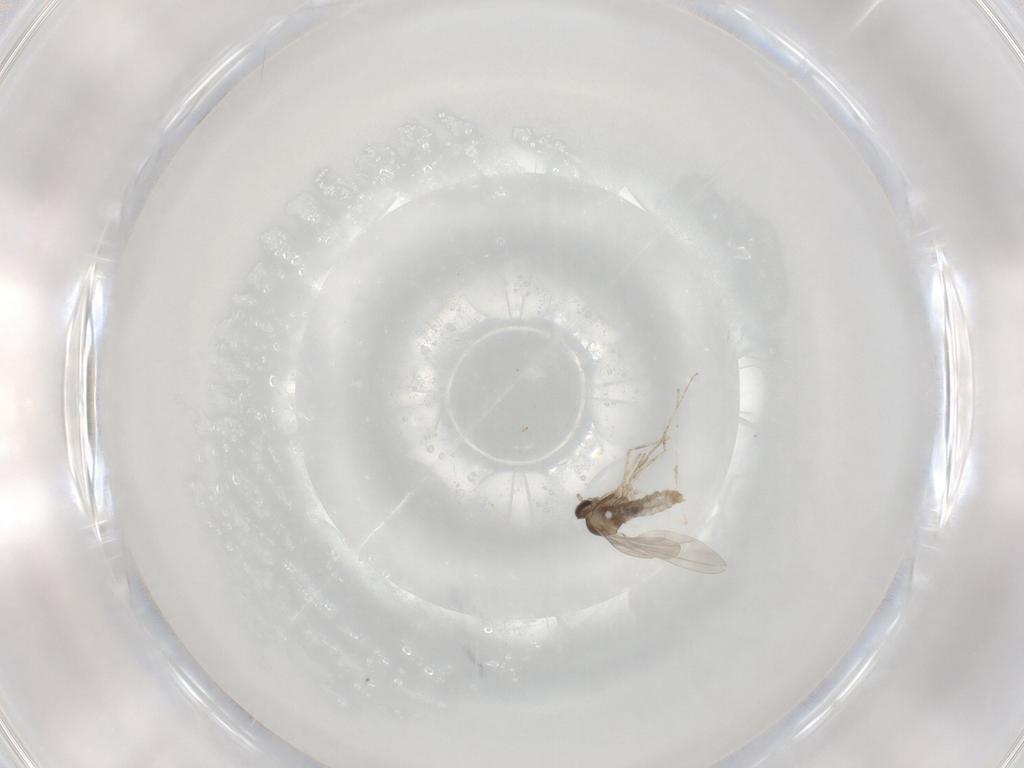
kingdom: Animalia
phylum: Arthropoda
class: Insecta
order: Diptera
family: Cecidomyiidae
